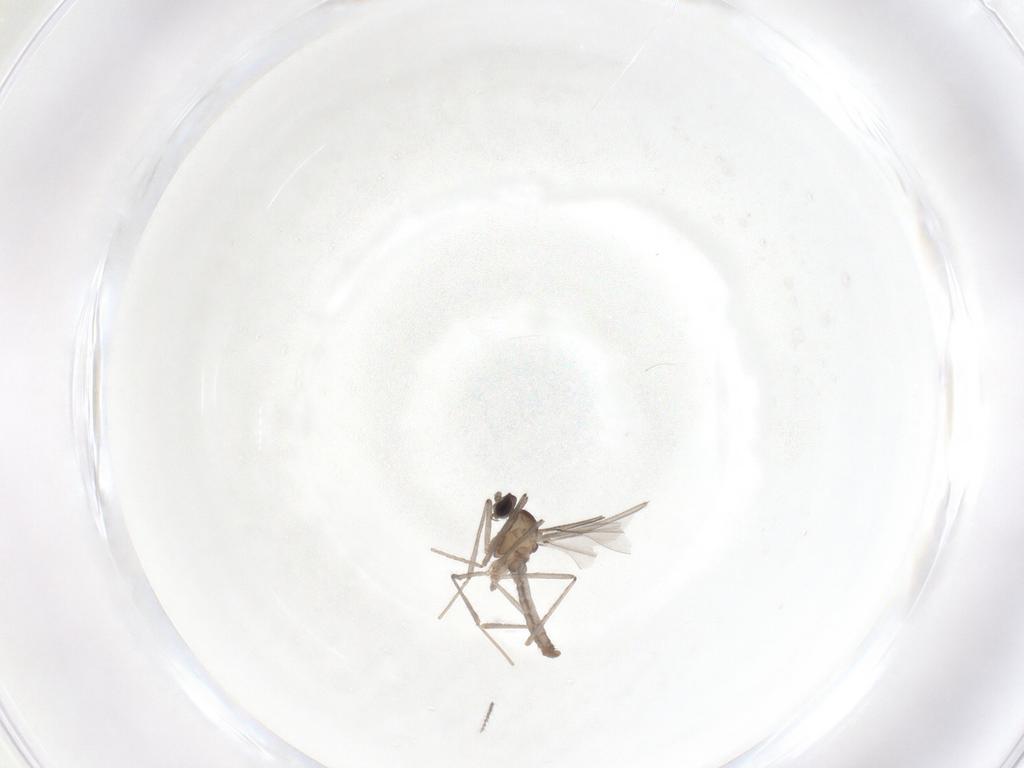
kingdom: Animalia
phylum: Arthropoda
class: Insecta
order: Diptera
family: Cecidomyiidae
